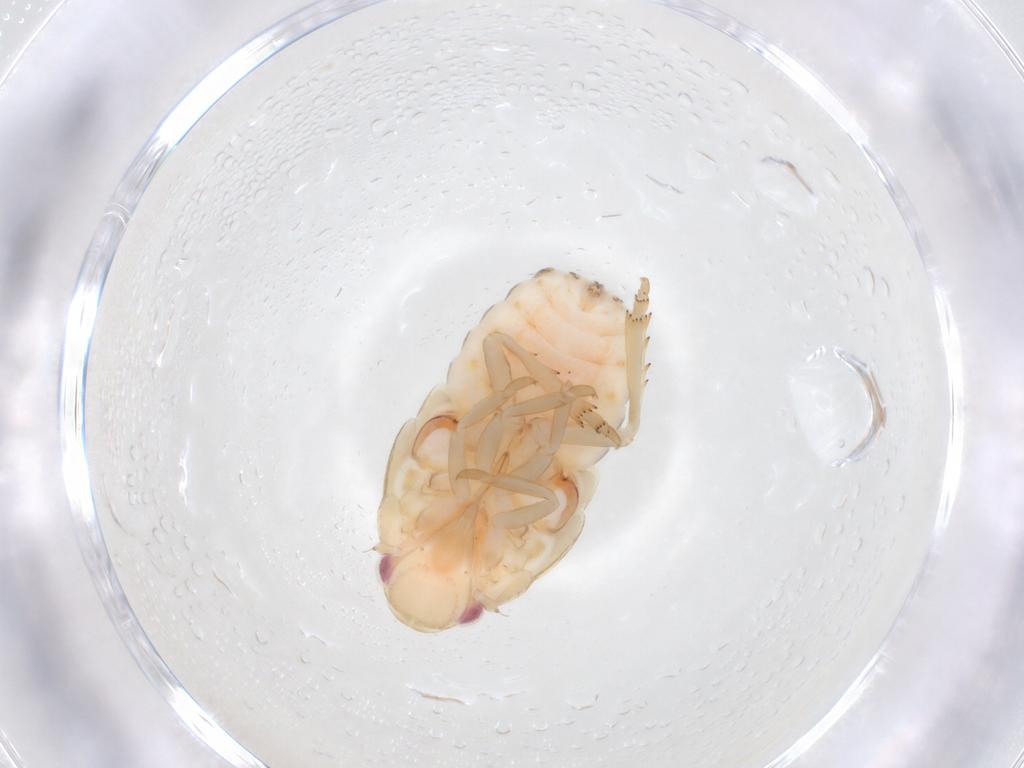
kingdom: Animalia
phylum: Arthropoda
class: Insecta
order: Hemiptera
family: Flatidae
